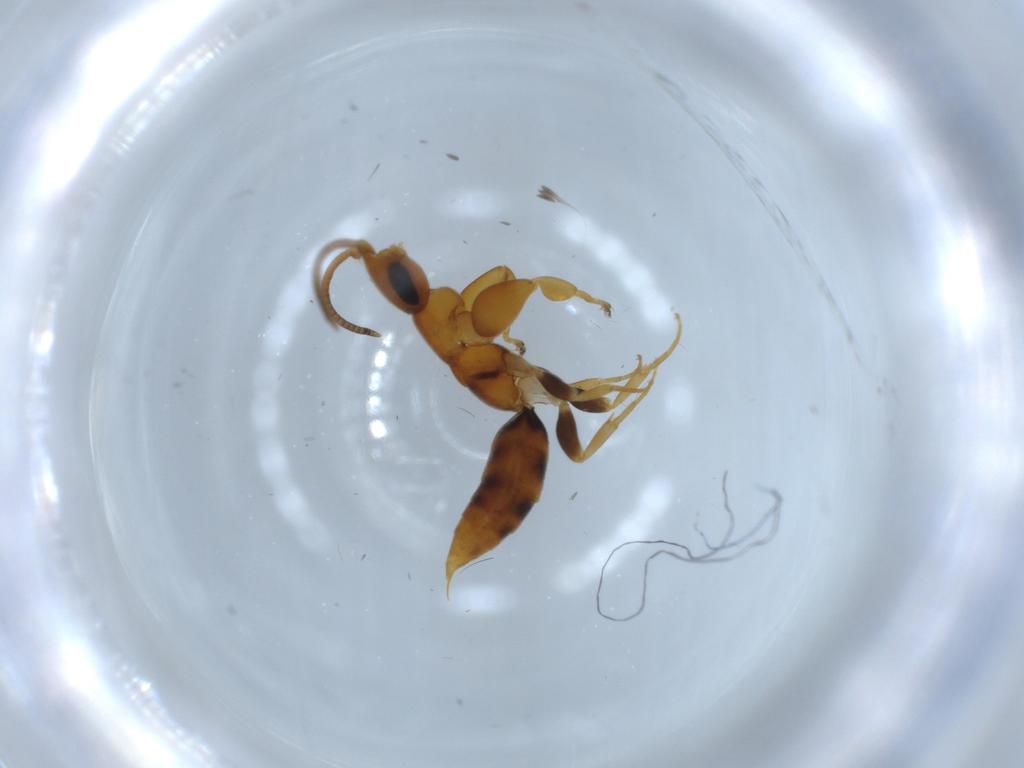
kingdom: Animalia
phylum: Arthropoda
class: Insecta
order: Hymenoptera
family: Sclerogibbidae
